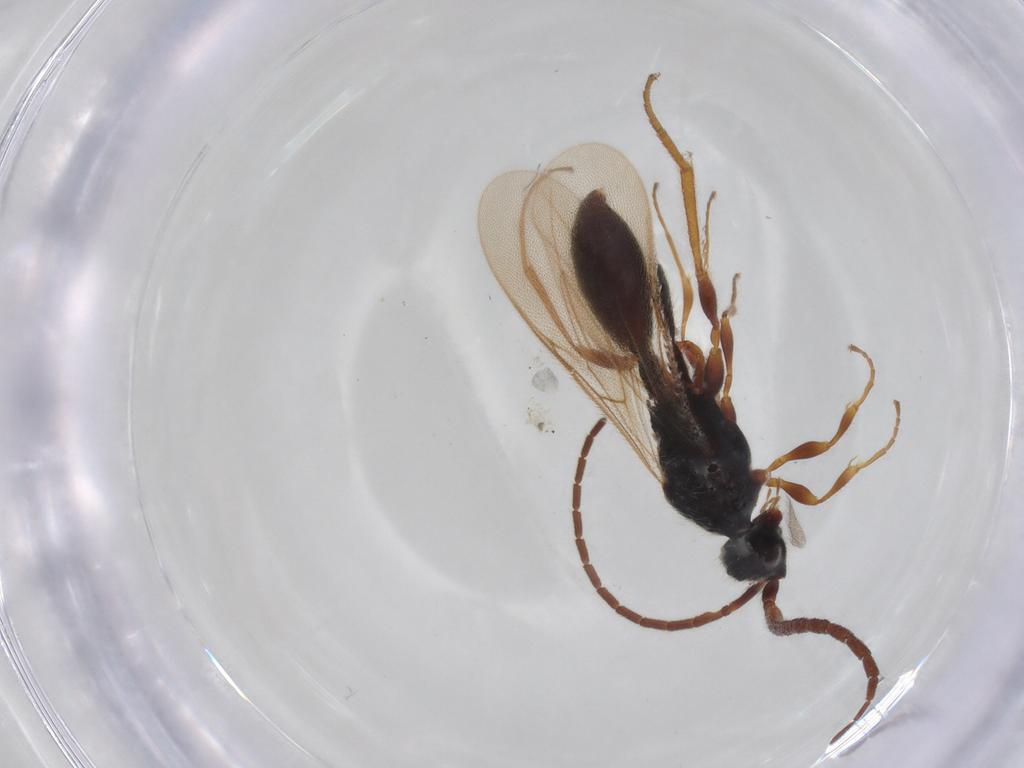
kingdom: Animalia
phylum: Arthropoda
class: Insecta
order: Hymenoptera
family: Diapriidae
